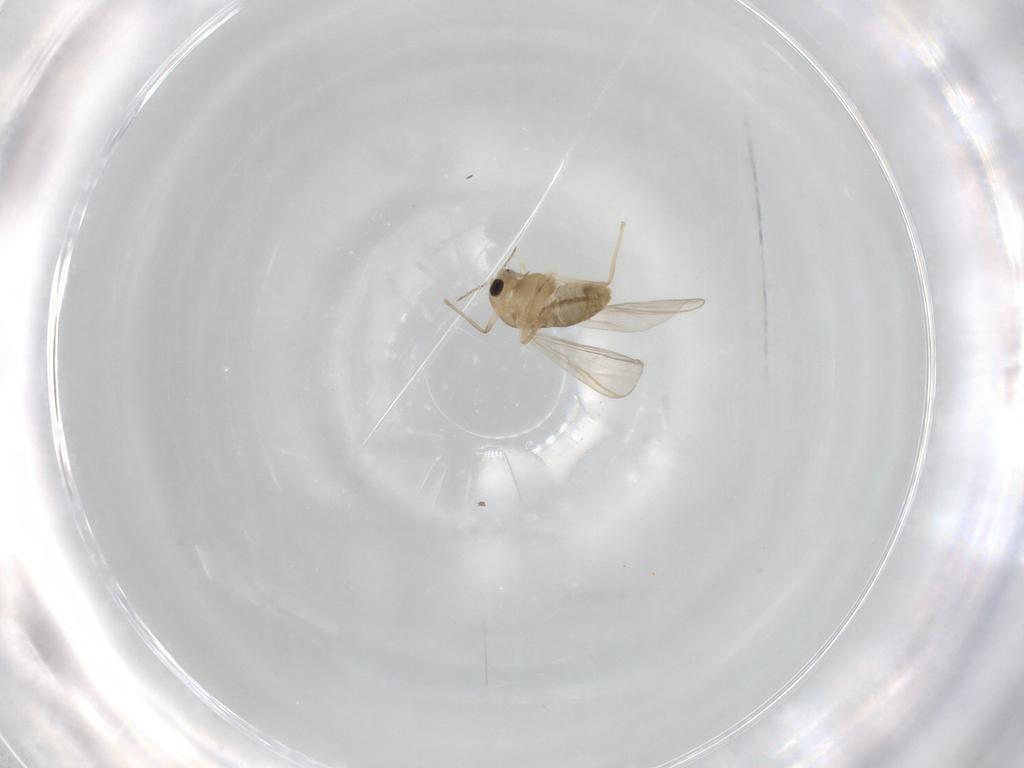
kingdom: Animalia
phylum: Arthropoda
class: Insecta
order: Diptera
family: Chironomidae
